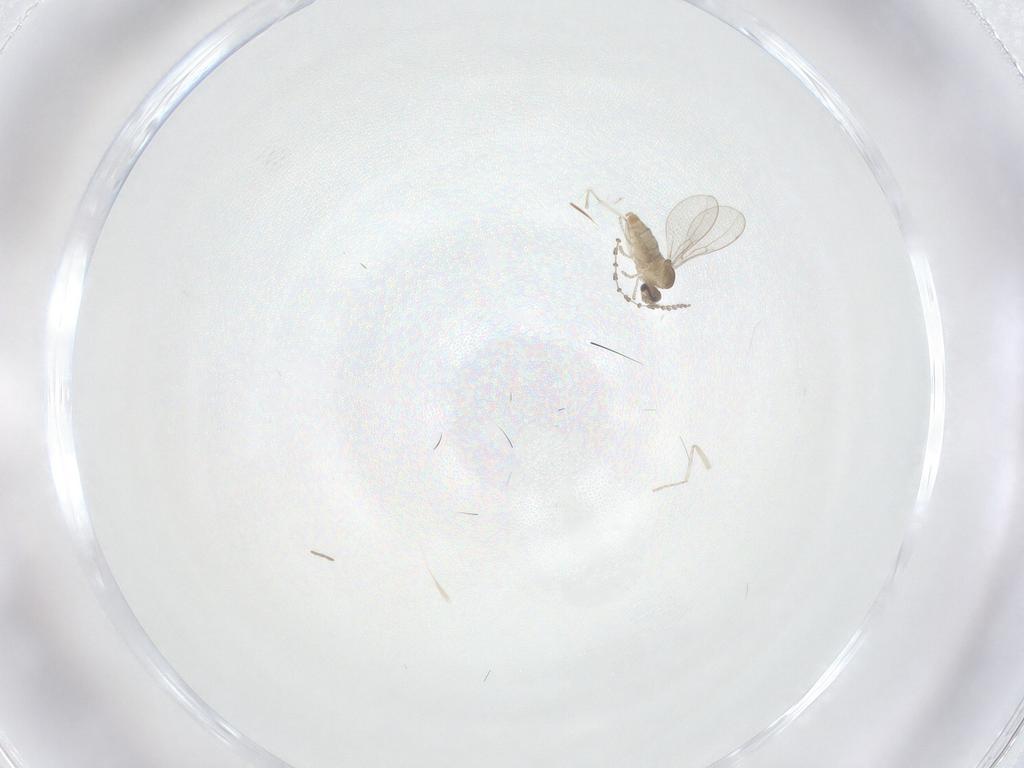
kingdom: Animalia
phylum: Arthropoda
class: Insecta
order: Diptera
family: Cecidomyiidae
